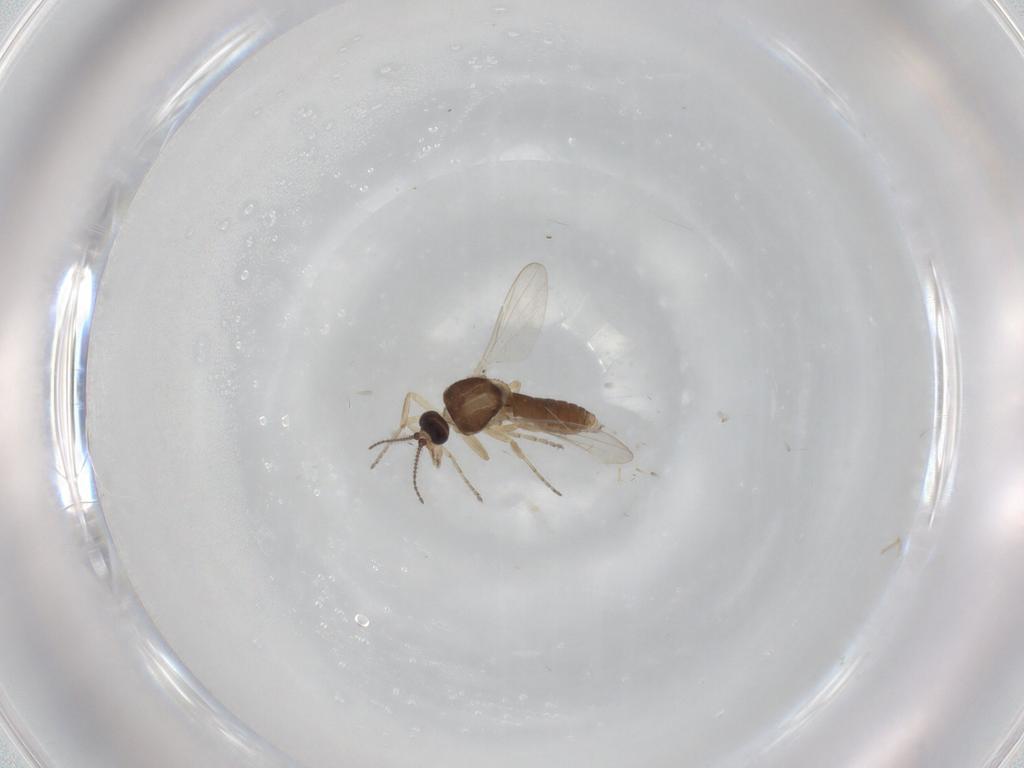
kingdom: Animalia
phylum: Arthropoda
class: Insecta
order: Diptera
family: Ceratopogonidae
